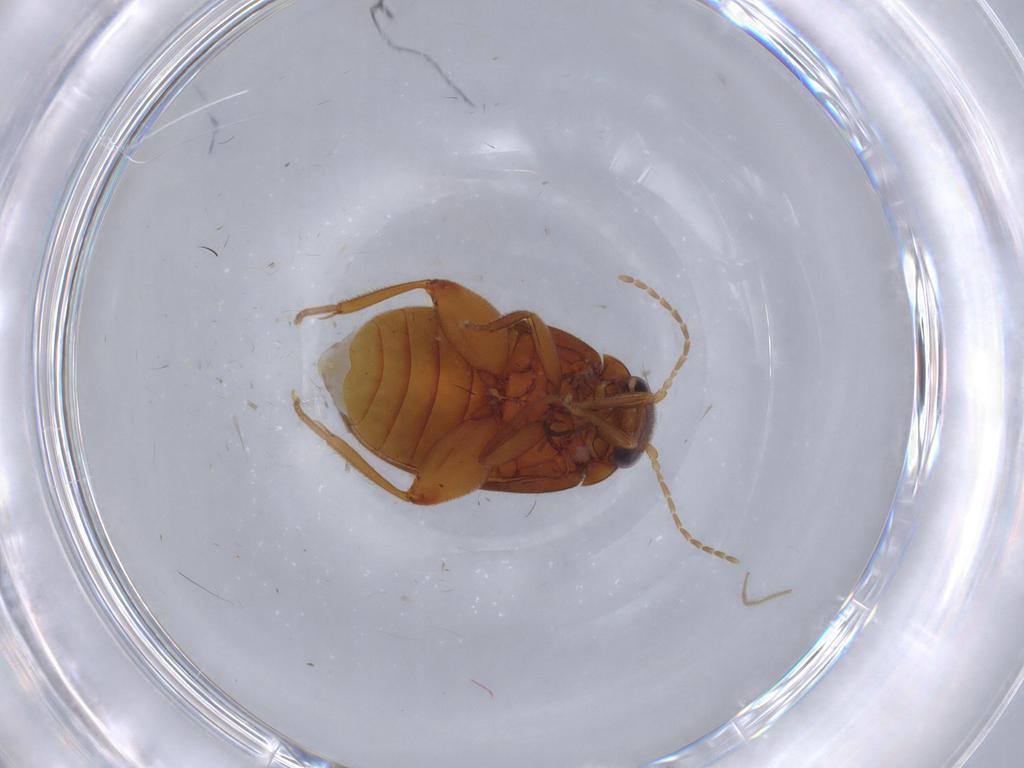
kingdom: Animalia
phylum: Arthropoda
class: Insecta
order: Coleoptera
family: Scirtidae
